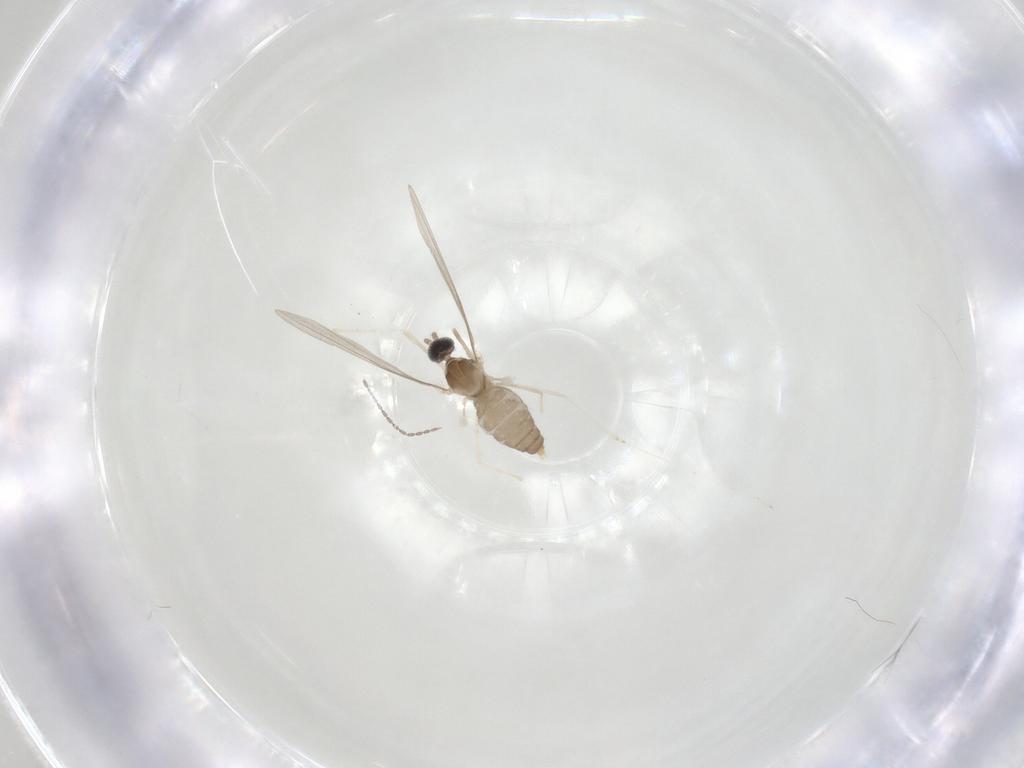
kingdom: Animalia
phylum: Arthropoda
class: Insecta
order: Diptera
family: Cecidomyiidae
